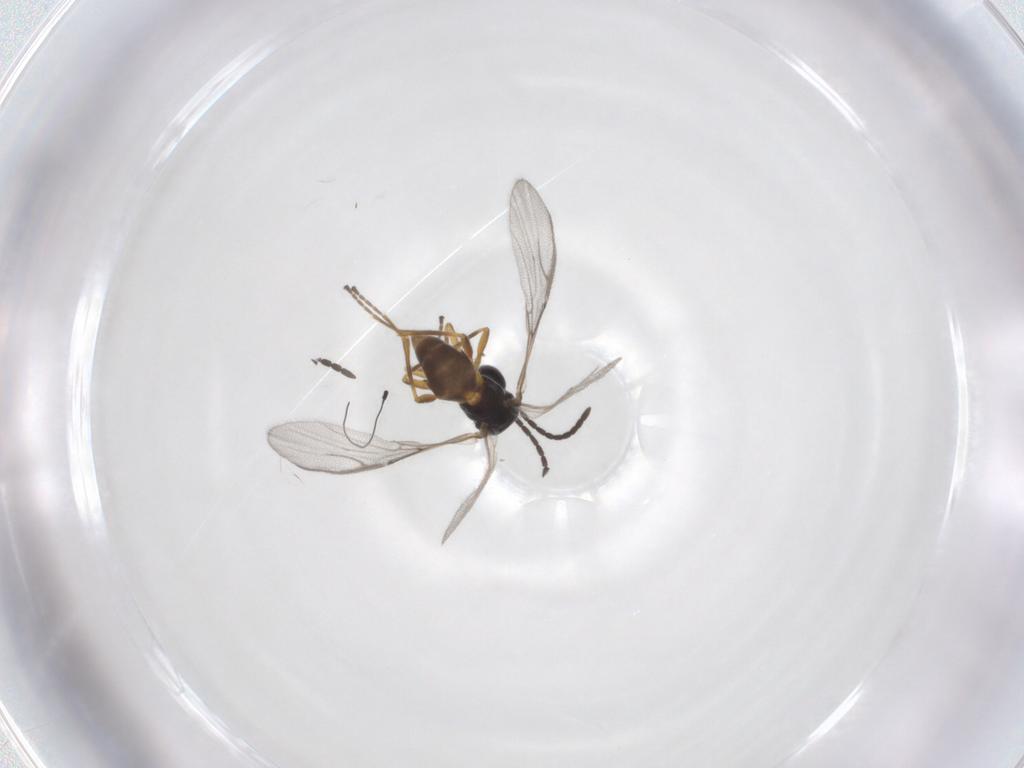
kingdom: Animalia
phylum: Arthropoda
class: Insecta
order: Hymenoptera
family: Braconidae
